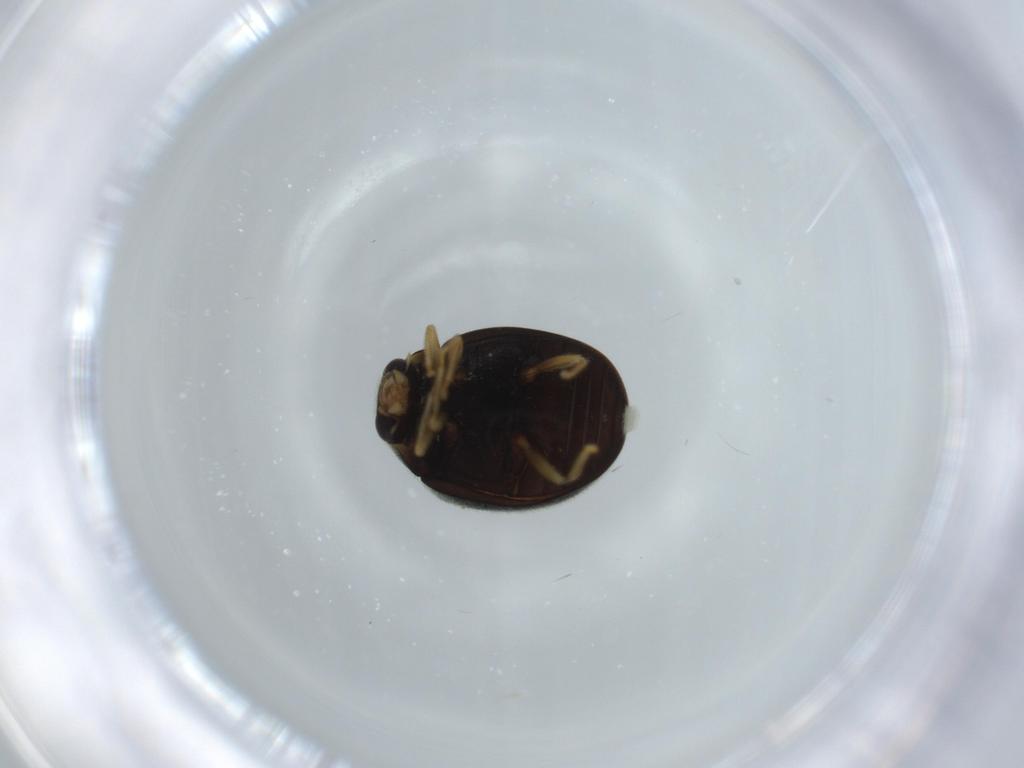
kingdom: Animalia
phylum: Arthropoda
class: Insecta
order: Coleoptera
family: Coccinellidae
